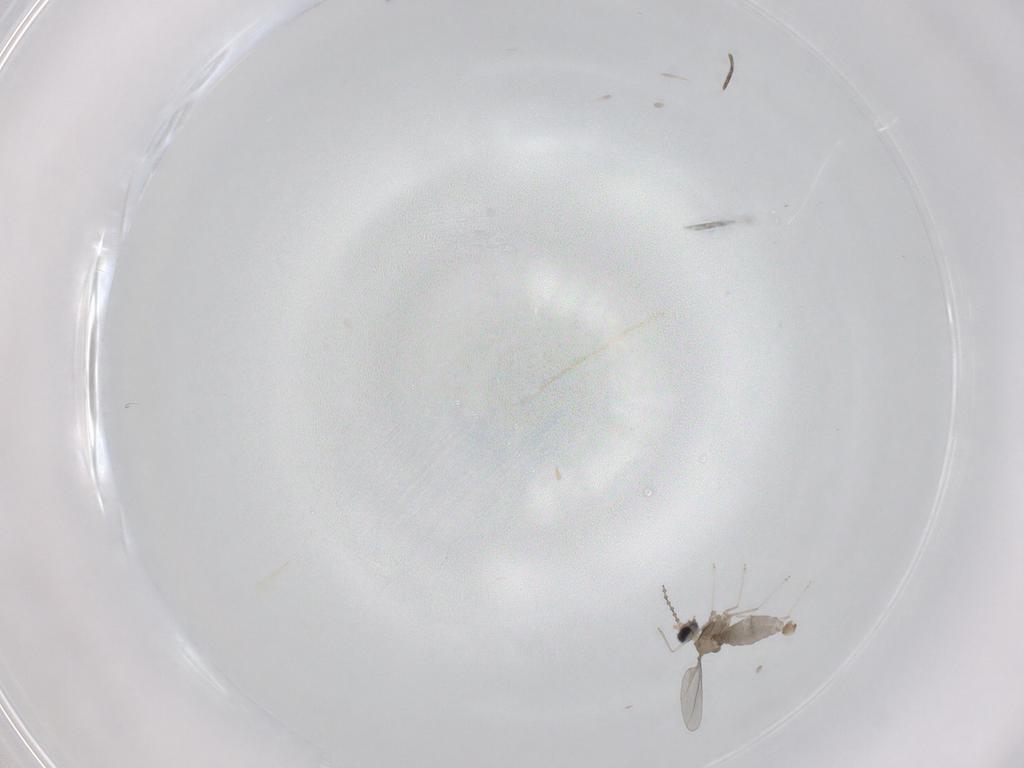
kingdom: Animalia
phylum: Arthropoda
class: Insecta
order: Diptera
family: Cecidomyiidae
